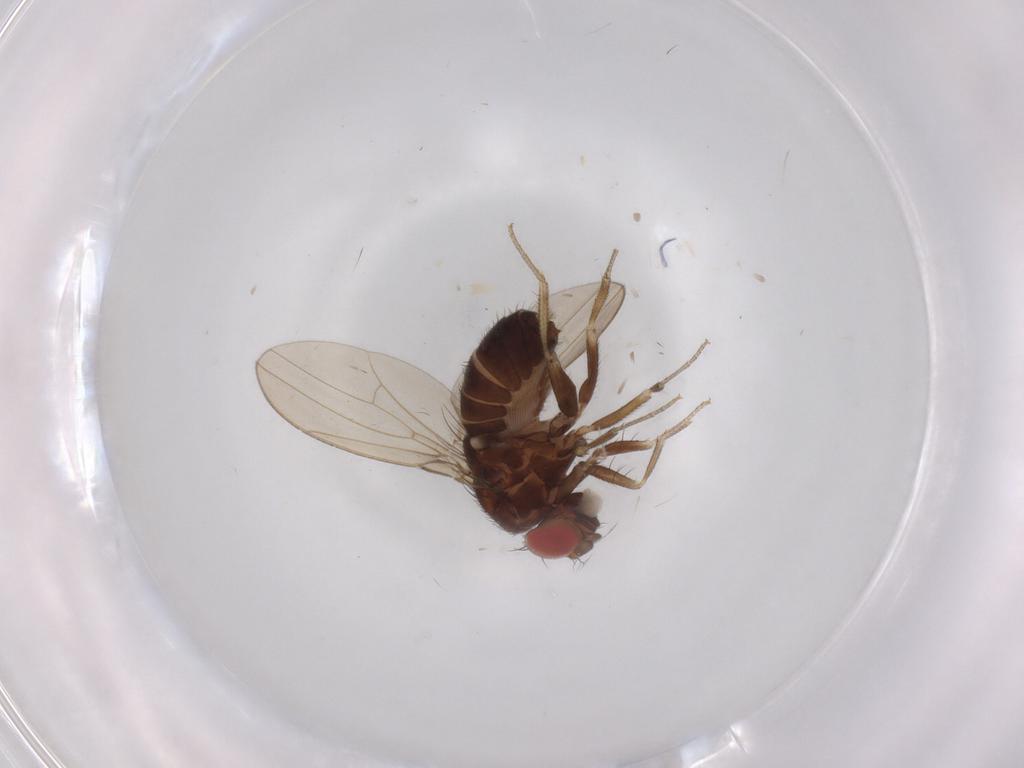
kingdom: Animalia
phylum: Arthropoda
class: Insecta
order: Diptera
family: Cecidomyiidae
